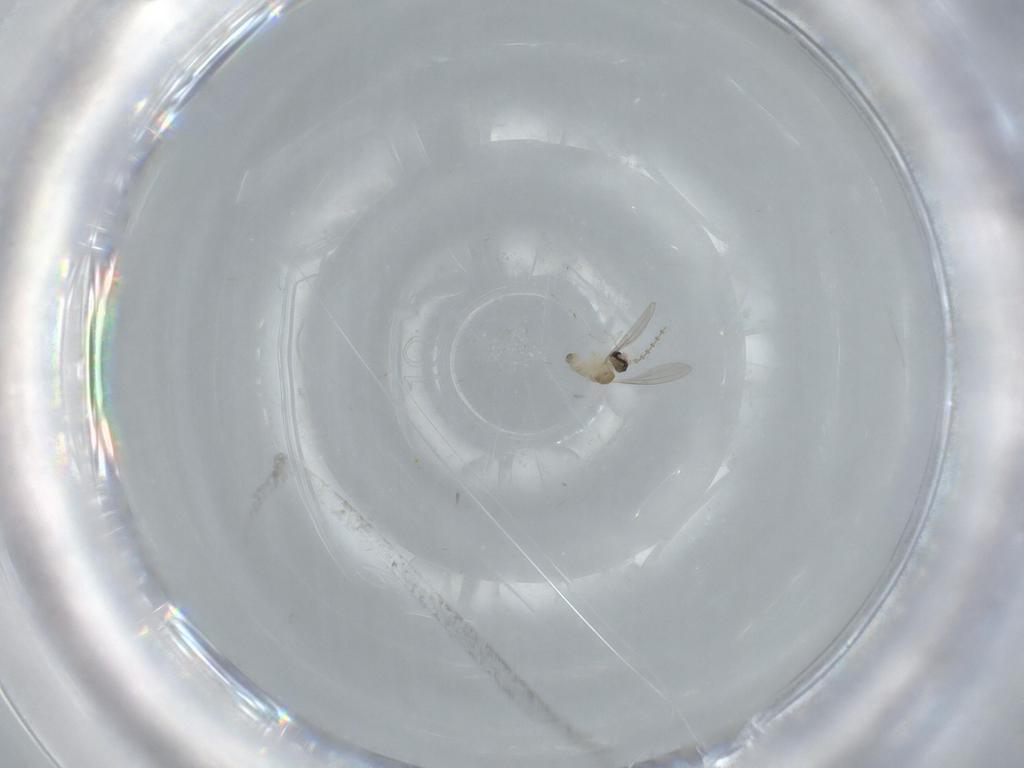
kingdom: Animalia
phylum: Arthropoda
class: Insecta
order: Diptera
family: Cecidomyiidae
